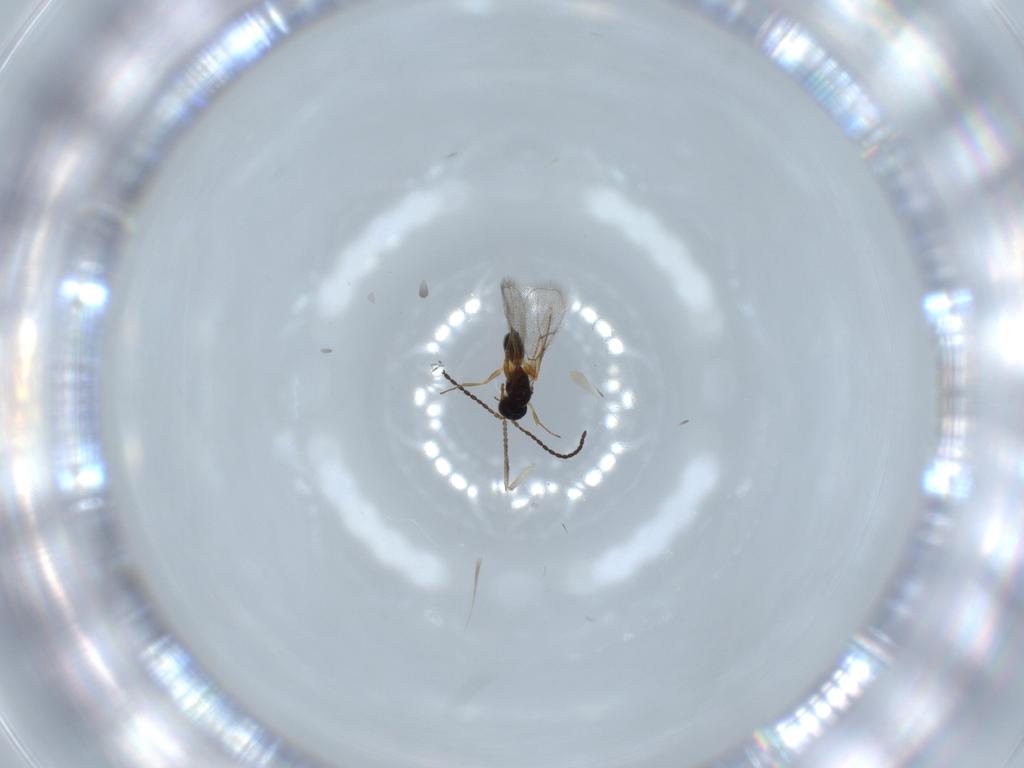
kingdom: Animalia
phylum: Arthropoda
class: Insecta
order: Hymenoptera
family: Figitidae
